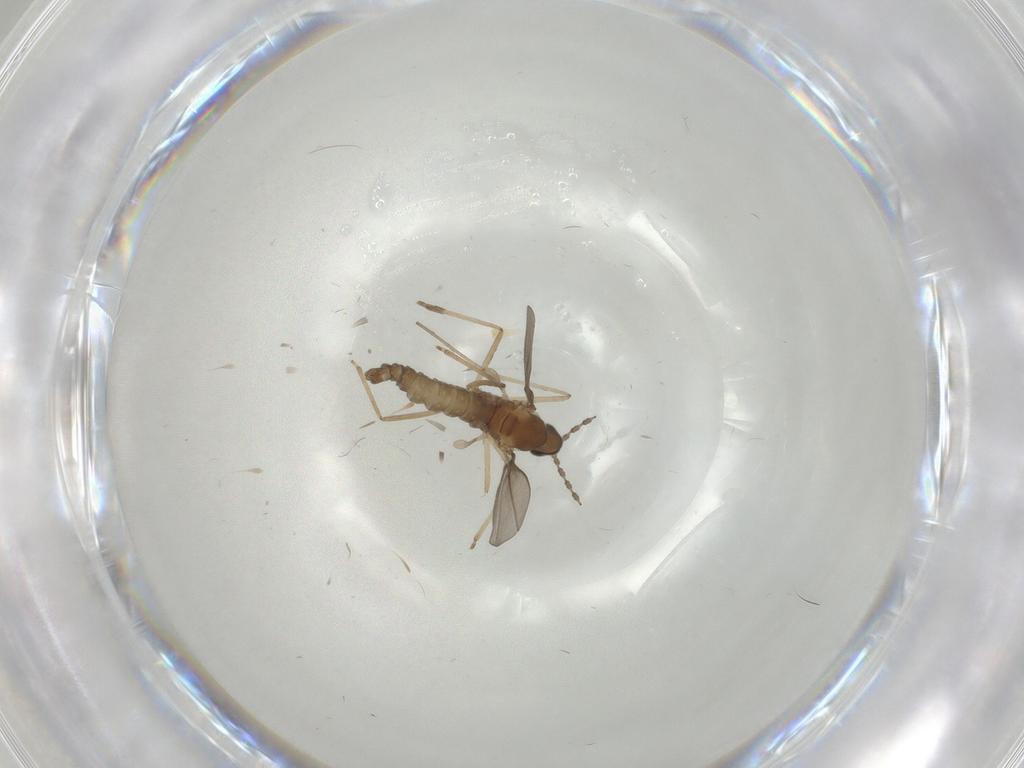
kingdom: Animalia
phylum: Arthropoda
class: Insecta
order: Diptera
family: Cecidomyiidae
